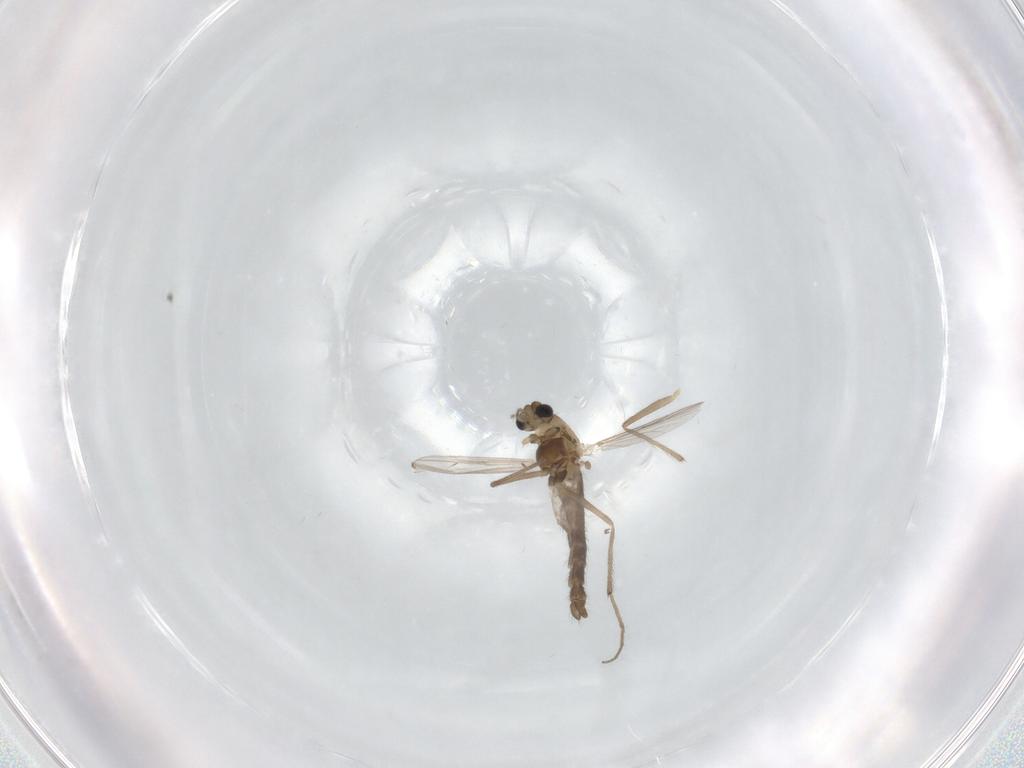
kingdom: Animalia
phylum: Arthropoda
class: Insecta
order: Diptera
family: Chironomidae
